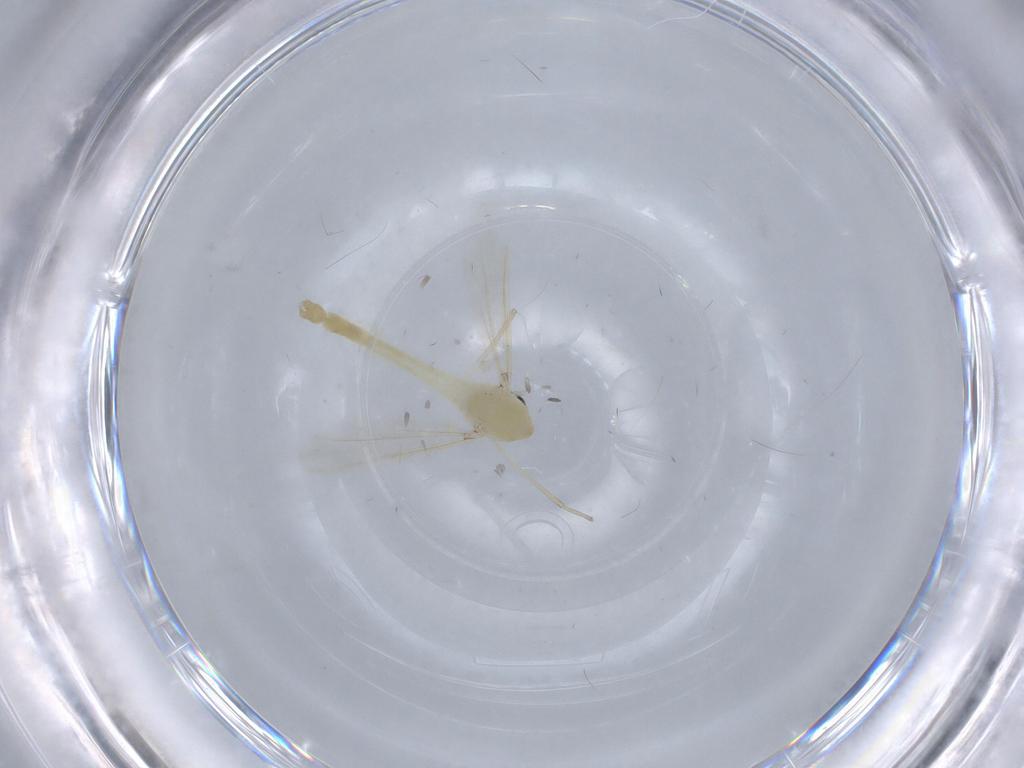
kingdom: Animalia
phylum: Arthropoda
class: Insecta
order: Diptera
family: Chironomidae
